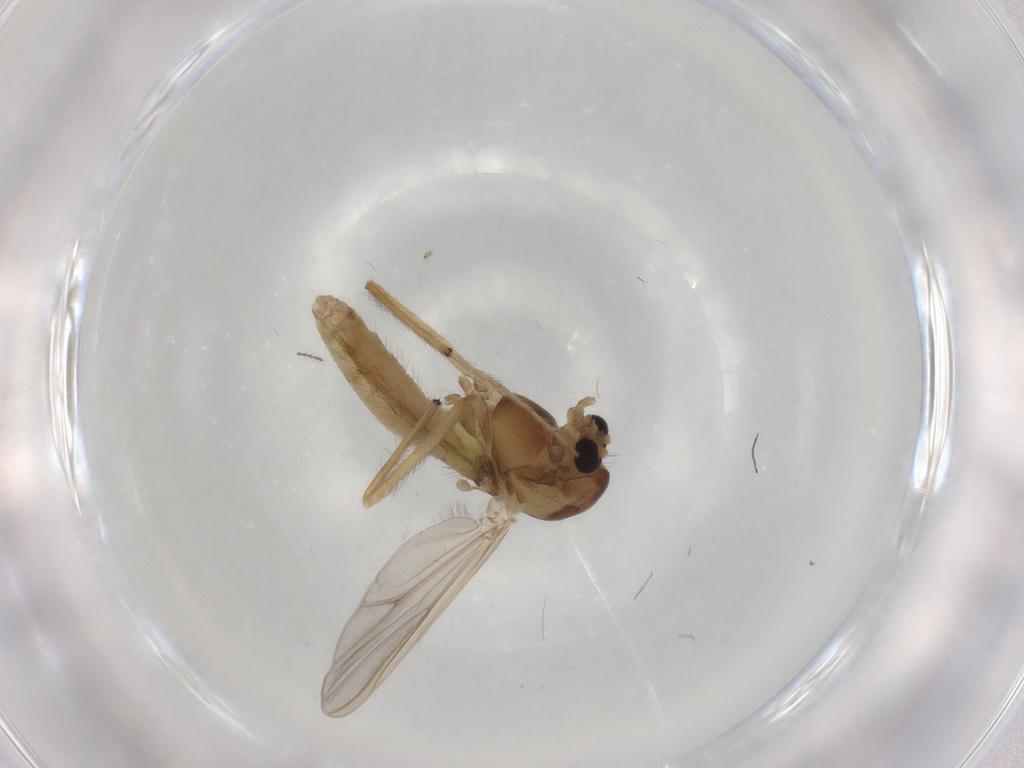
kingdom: Animalia
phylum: Arthropoda
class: Insecta
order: Diptera
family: Chironomidae
